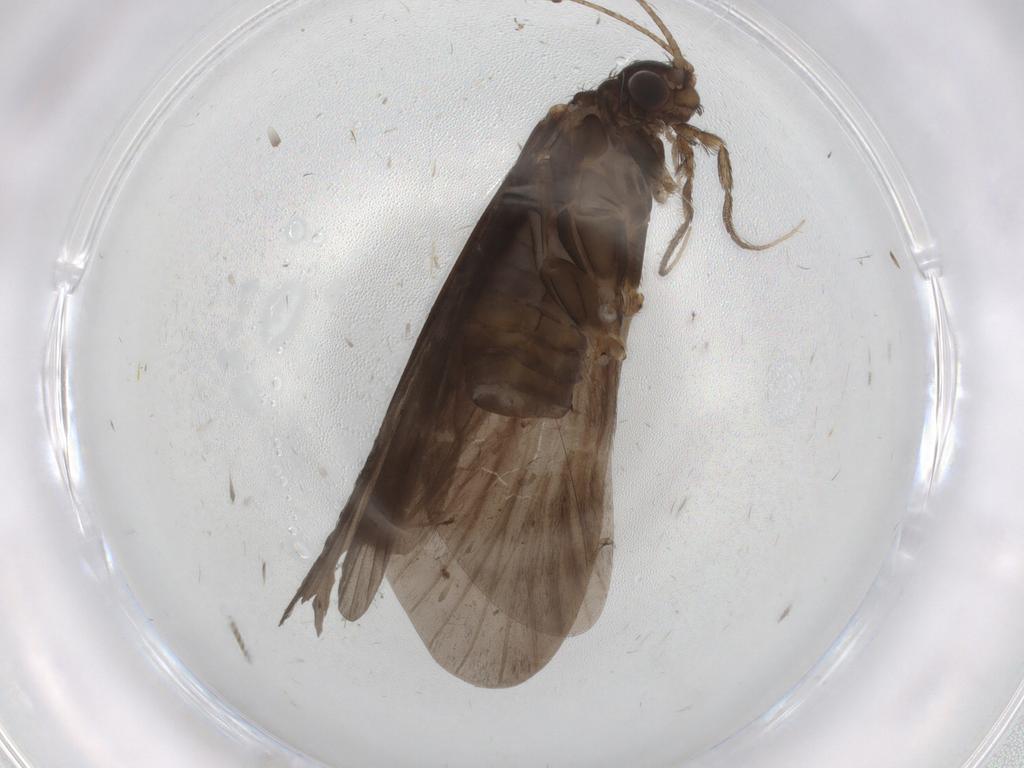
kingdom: Animalia
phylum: Arthropoda
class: Insecta
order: Trichoptera
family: Hydropsychidae
